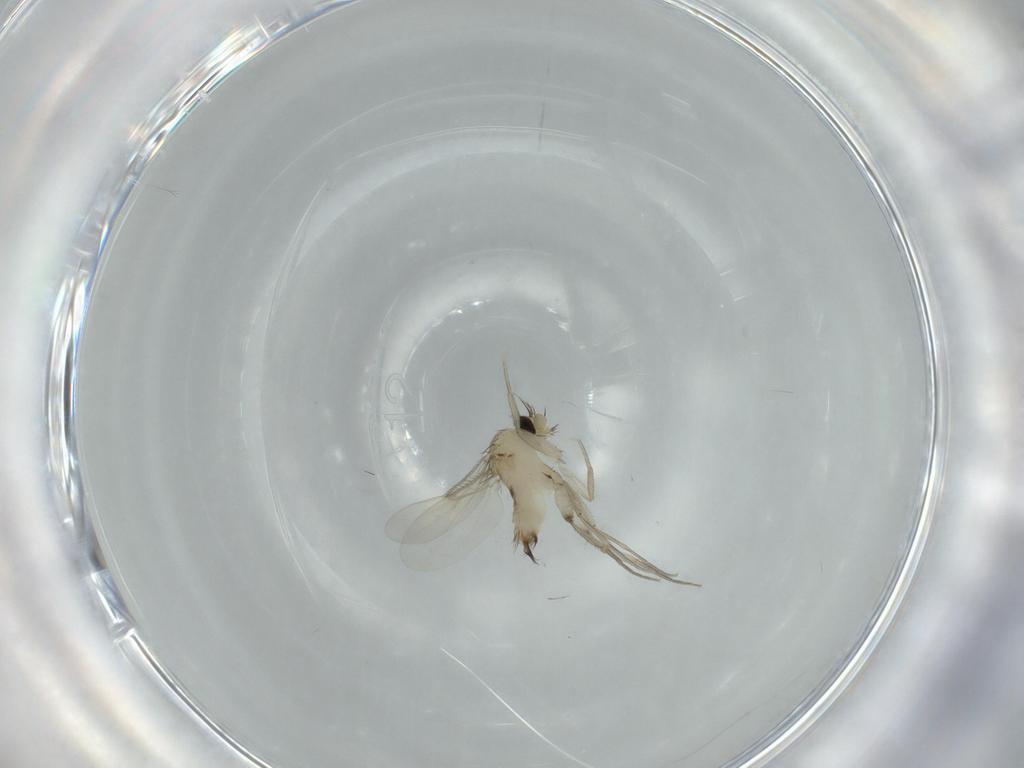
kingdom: Animalia
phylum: Arthropoda
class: Insecta
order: Diptera
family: Phoridae
